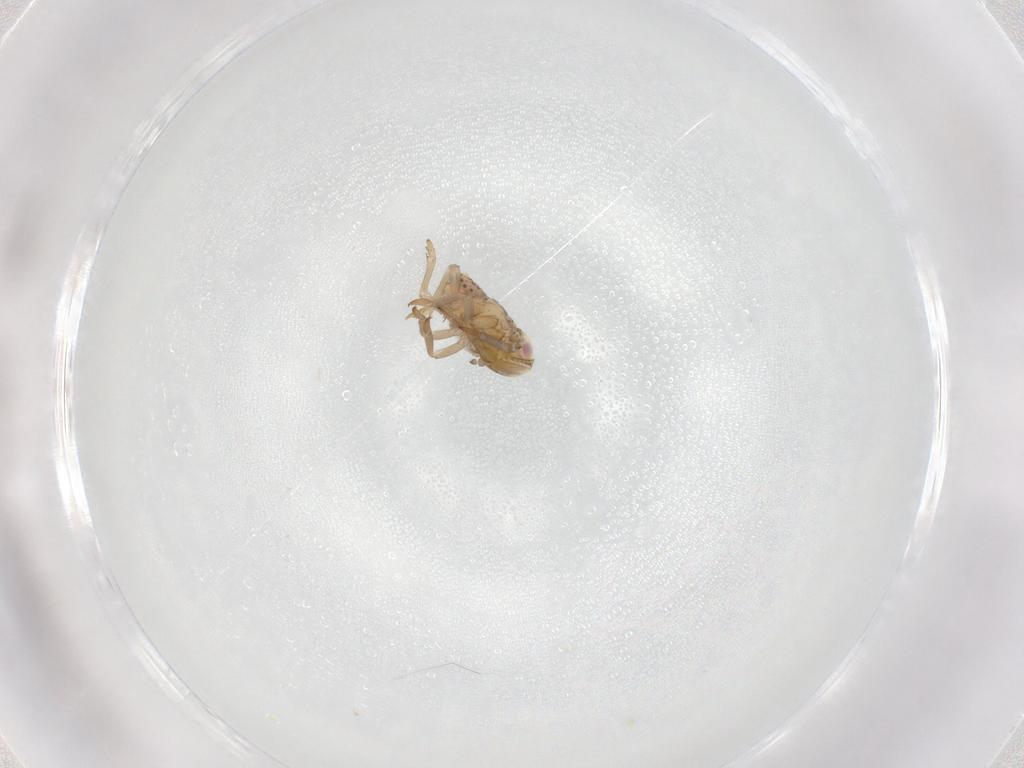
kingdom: Animalia
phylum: Arthropoda
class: Insecta
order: Hemiptera
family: Tropiduchidae
